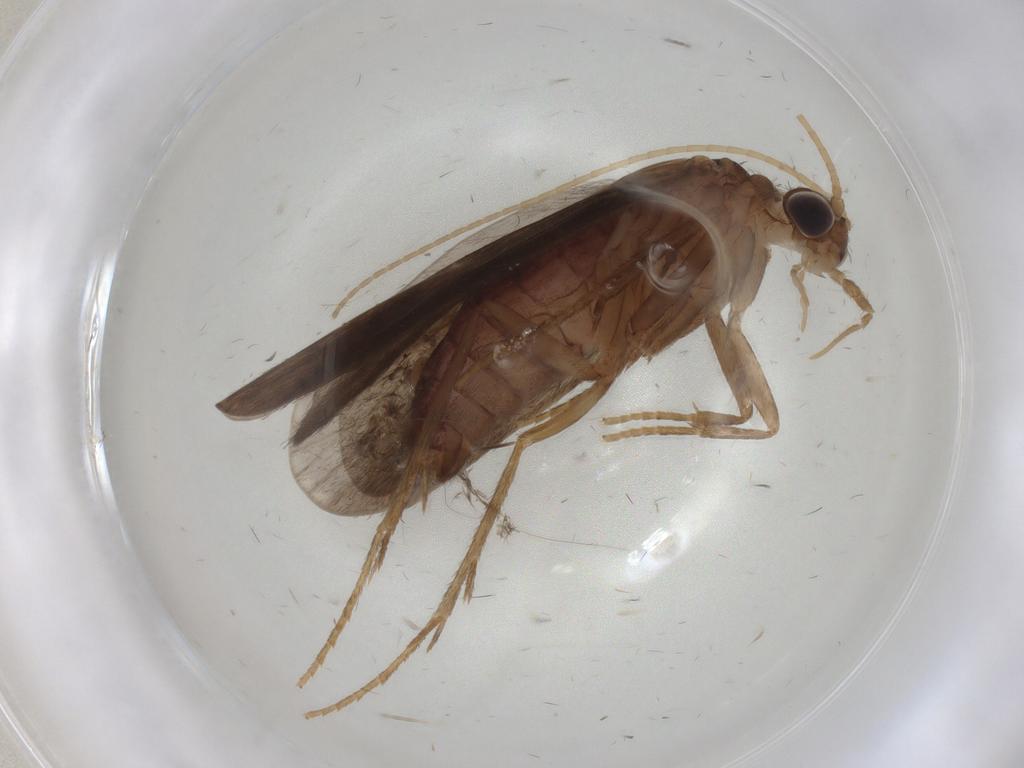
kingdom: Animalia
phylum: Arthropoda
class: Insecta
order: Trichoptera
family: Polycentropodidae
